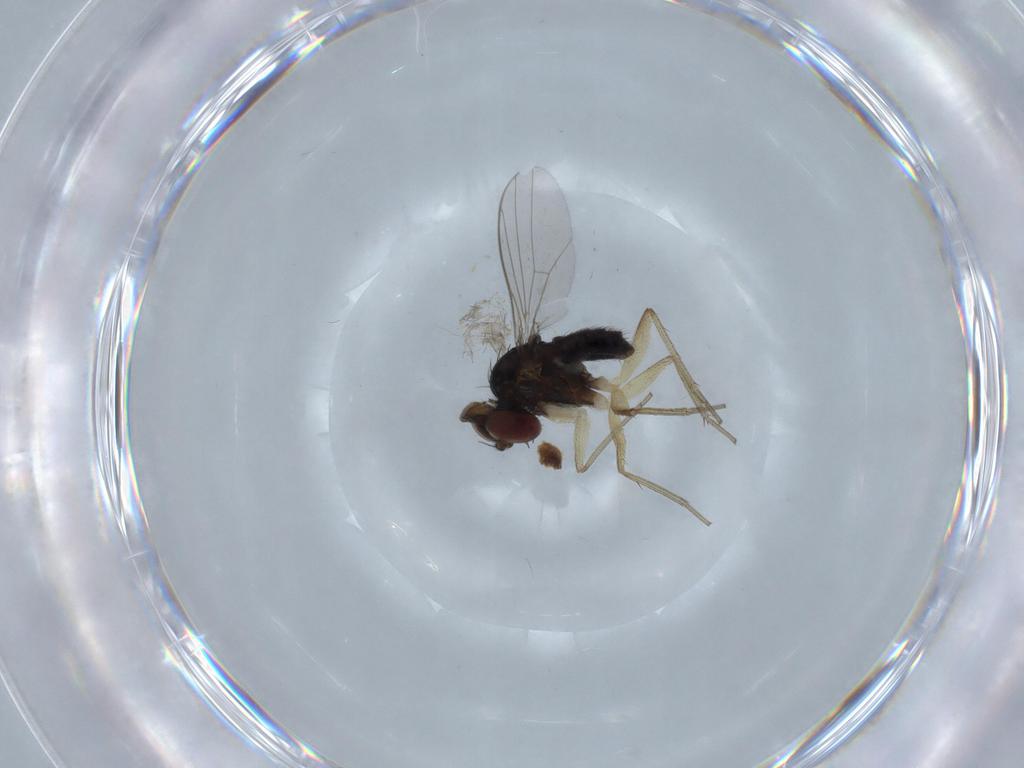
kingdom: Animalia
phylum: Arthropoda
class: Insecta
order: Diptera
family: Dolichopodidae
